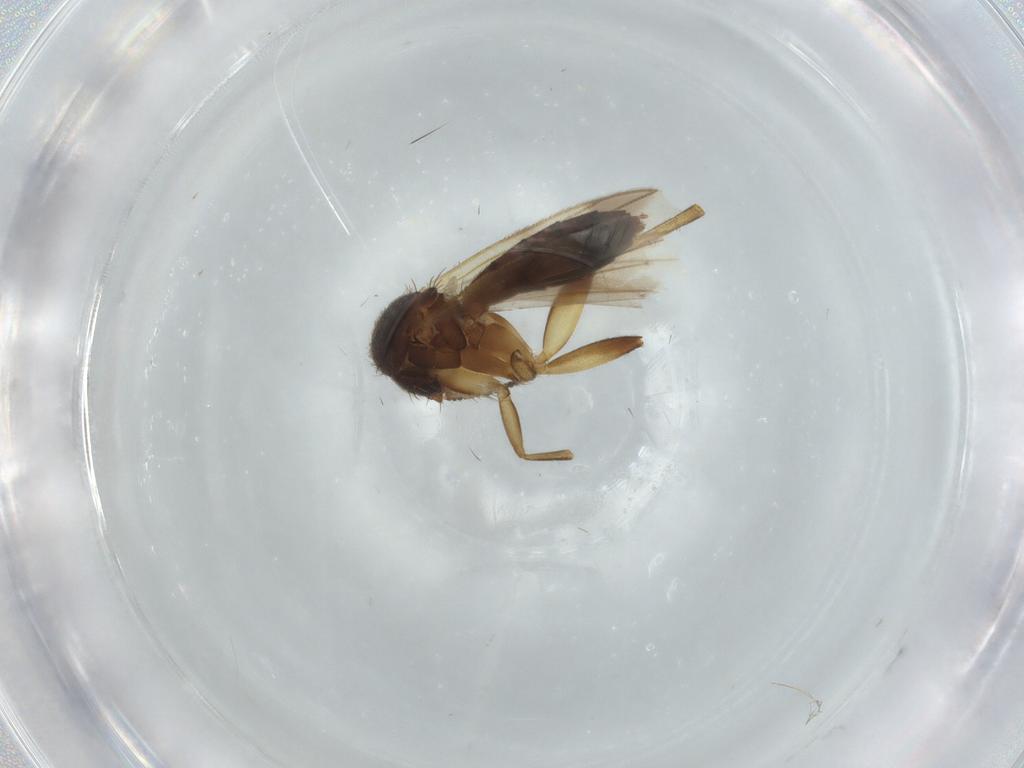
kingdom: Animalia
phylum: Arthropoda
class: Insecta
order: Diptera
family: Mycetophilidae
